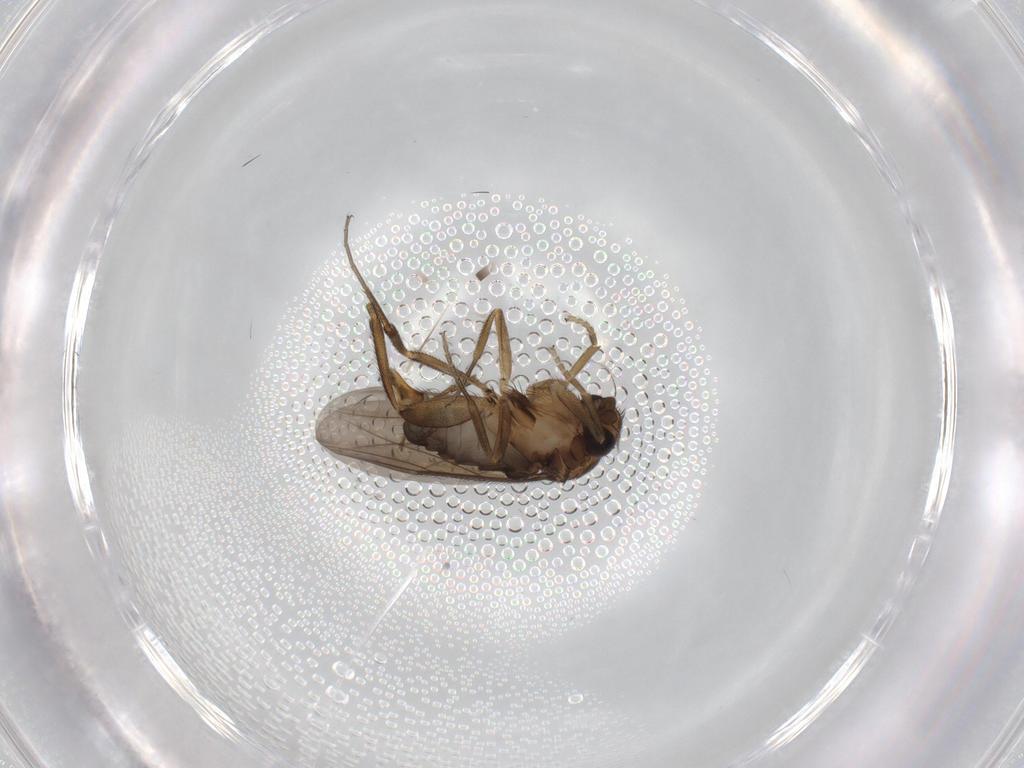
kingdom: Animalia
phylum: Arthropoda
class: Insecta
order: Diptera
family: Phoridae
